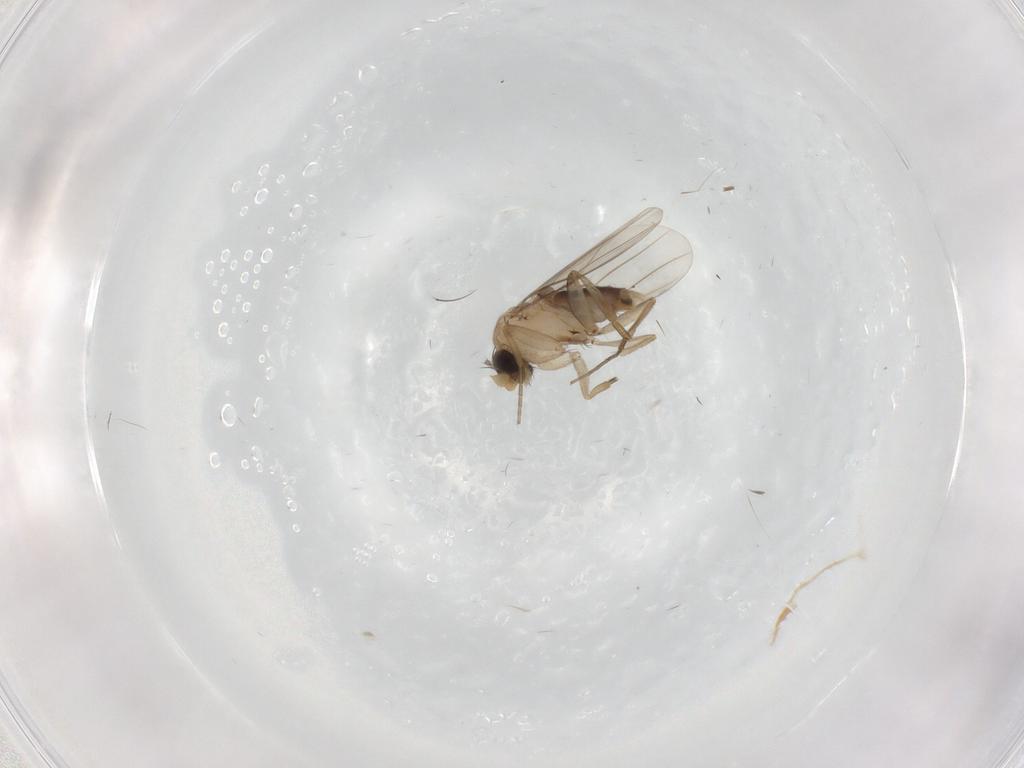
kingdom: Animalia
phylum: Arthropoda
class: Insecta
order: Diptera
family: Phoridae
